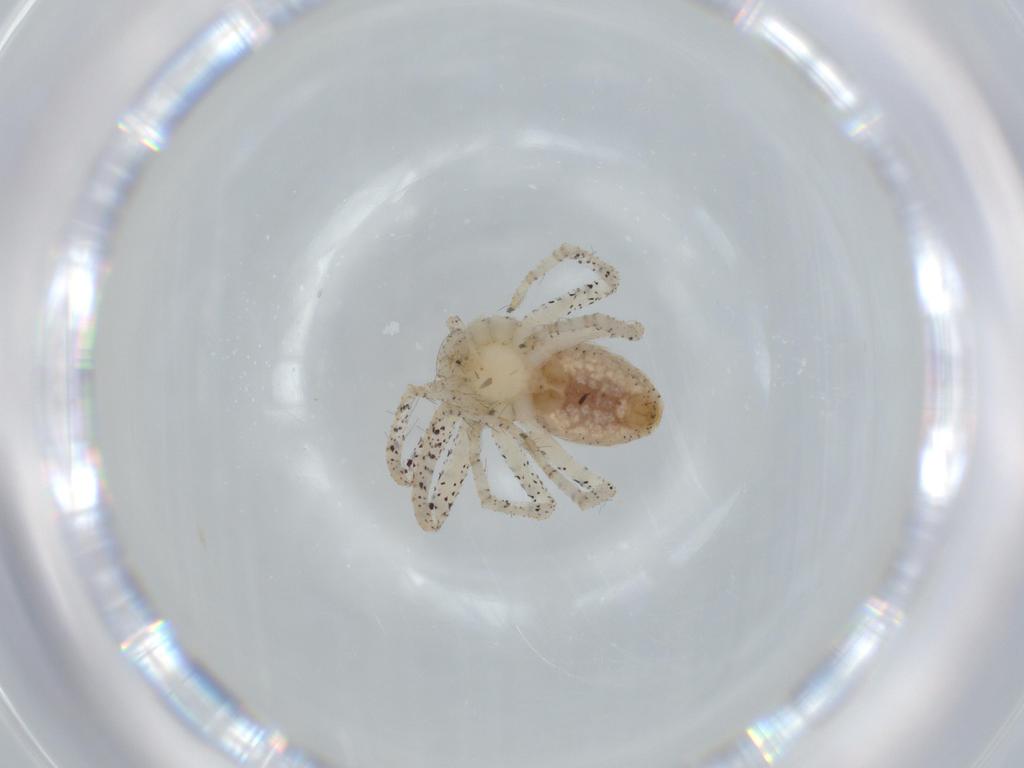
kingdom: Animalia
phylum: Arthropoda
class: Arachnida
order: Araneae
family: Philodromidae
